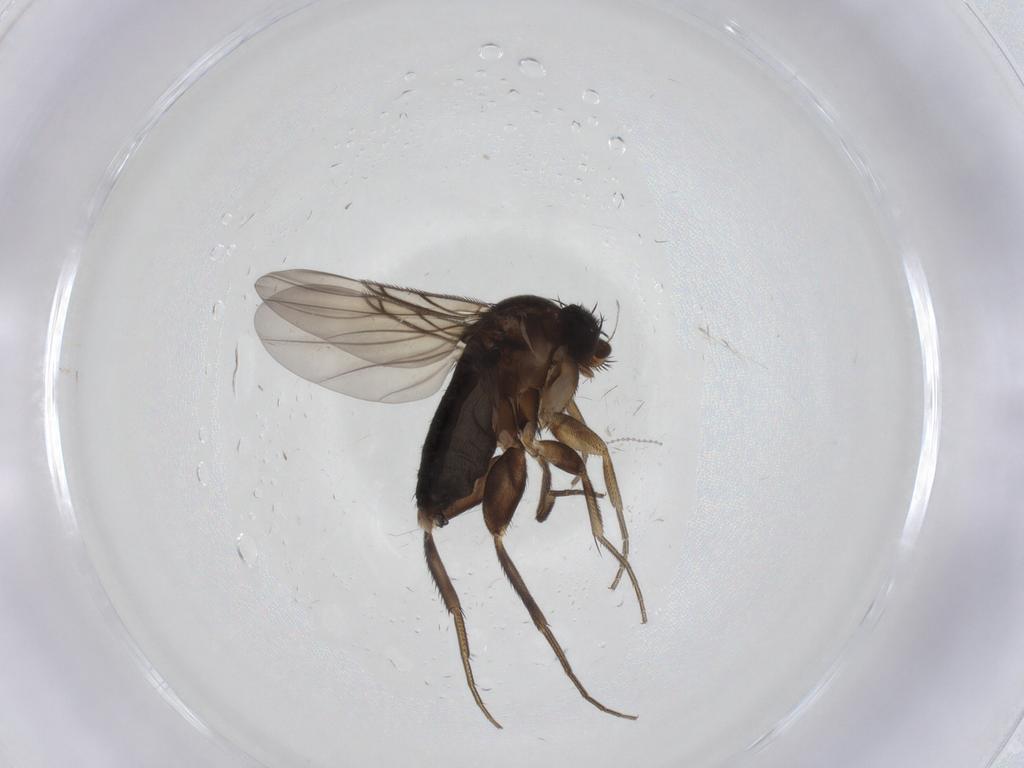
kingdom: Animalia
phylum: Arthropoda
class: Insecta
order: Diptera
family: Phoridae
